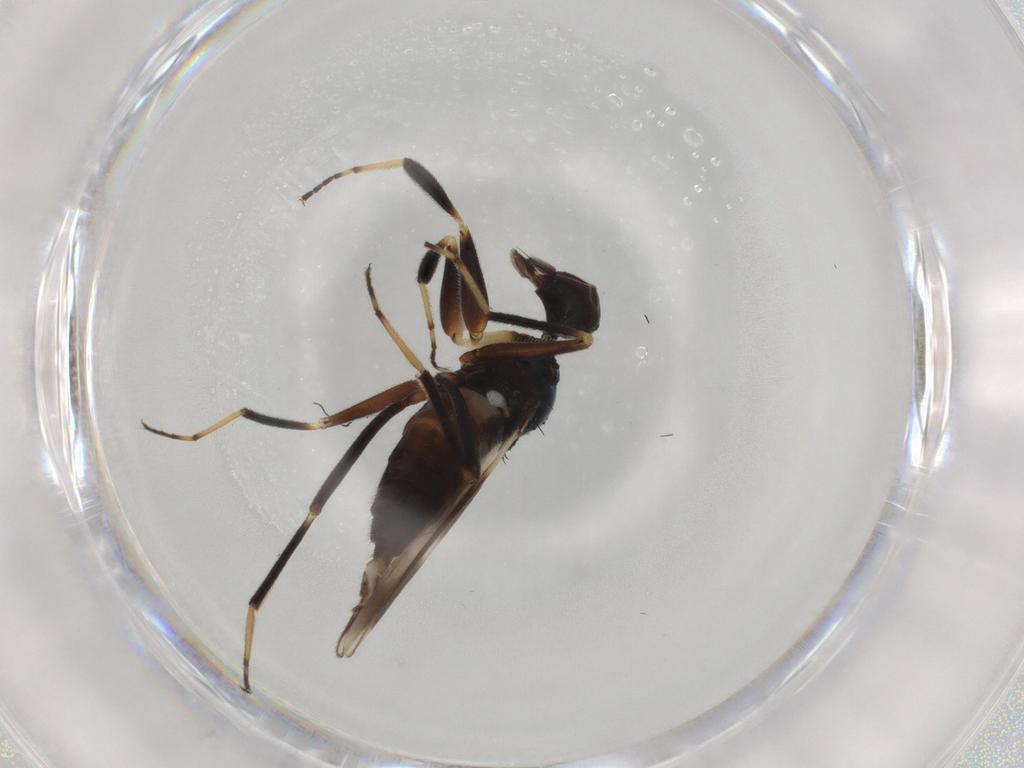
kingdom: Animalia
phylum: Arthropoda
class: Insecta
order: Diptera
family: Hybotidae
